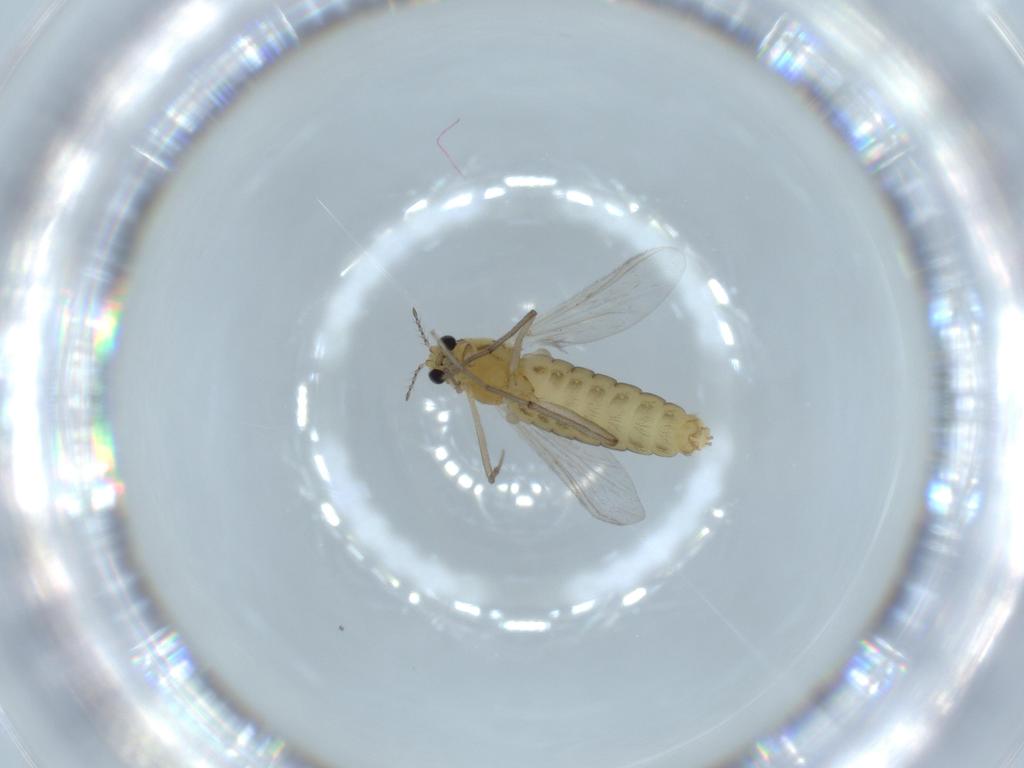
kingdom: Animalia
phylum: Arthropoda
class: Insecta
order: Diptera
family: Chironomidae
